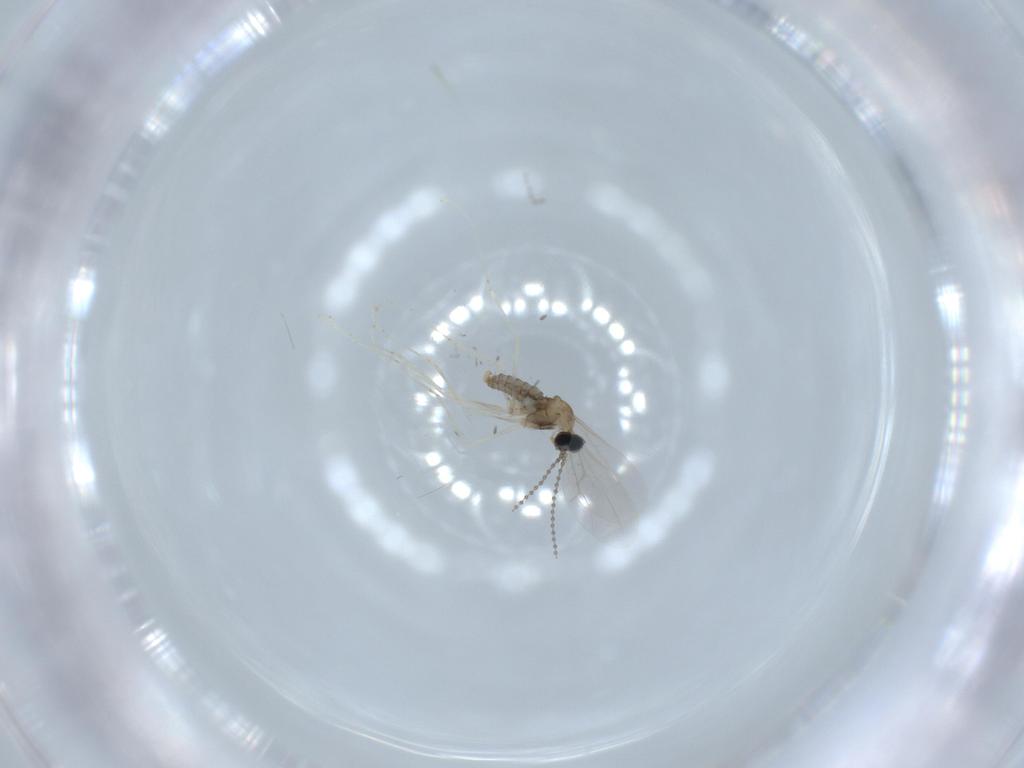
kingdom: Animalia
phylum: Arthropoda
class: Insecta
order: Diptera
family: Cecidomyiidae
